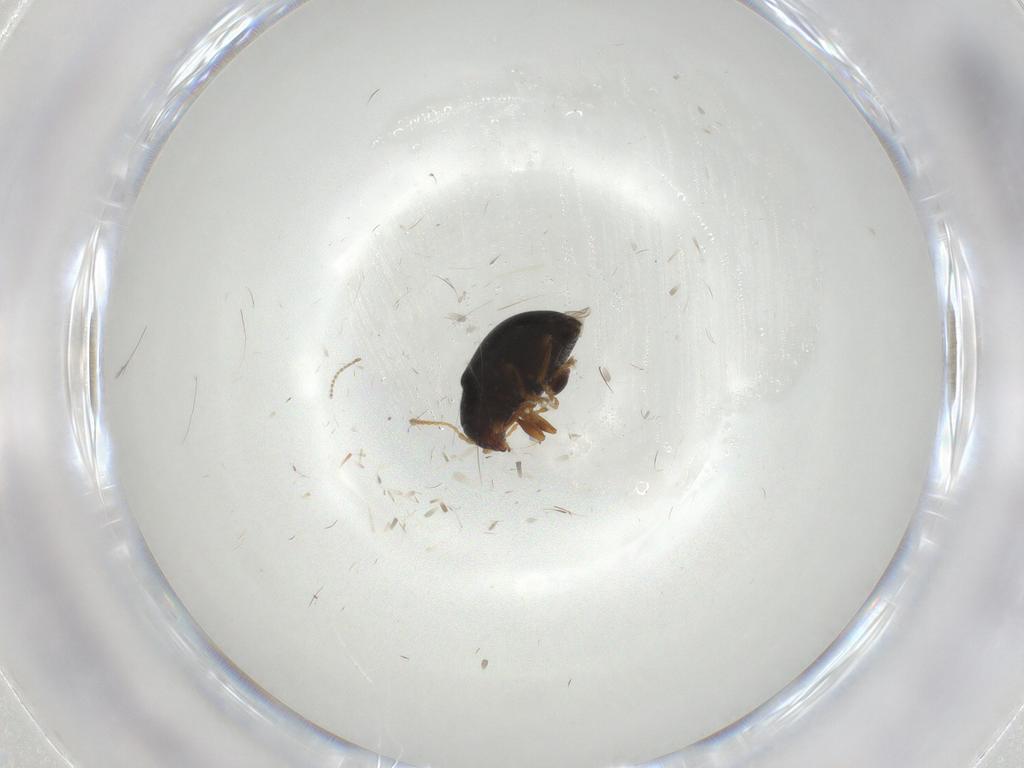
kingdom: Animalia
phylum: Arthropoda
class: Insecta
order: Coleoptera
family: Chrysomelidae
